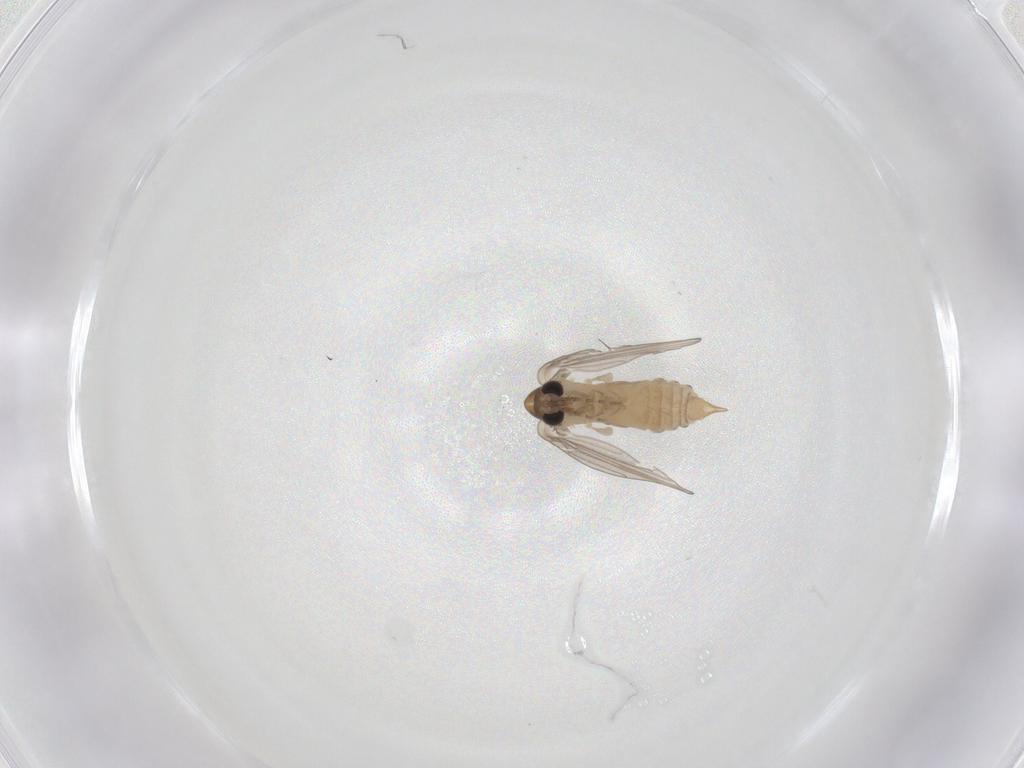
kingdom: Animalia
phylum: Arthropoda
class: Insecta
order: Diptera
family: Psychodidae
